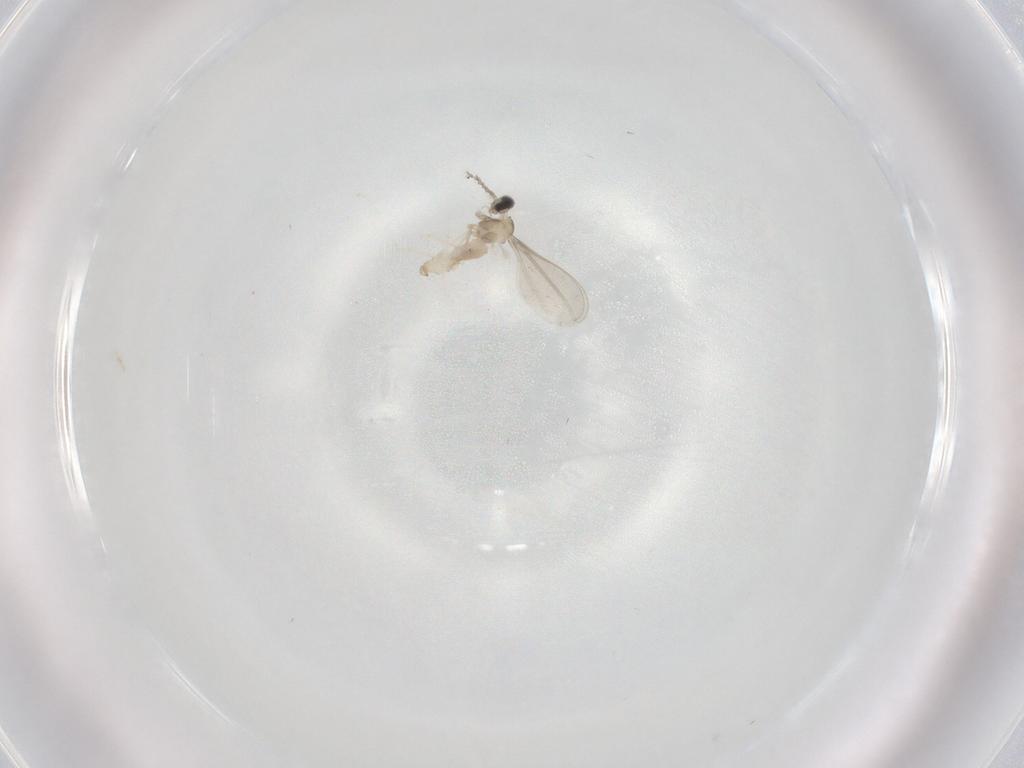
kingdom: Animalia
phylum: Arthropoda
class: Insecta
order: Diptera
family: Cecidomyiidae
